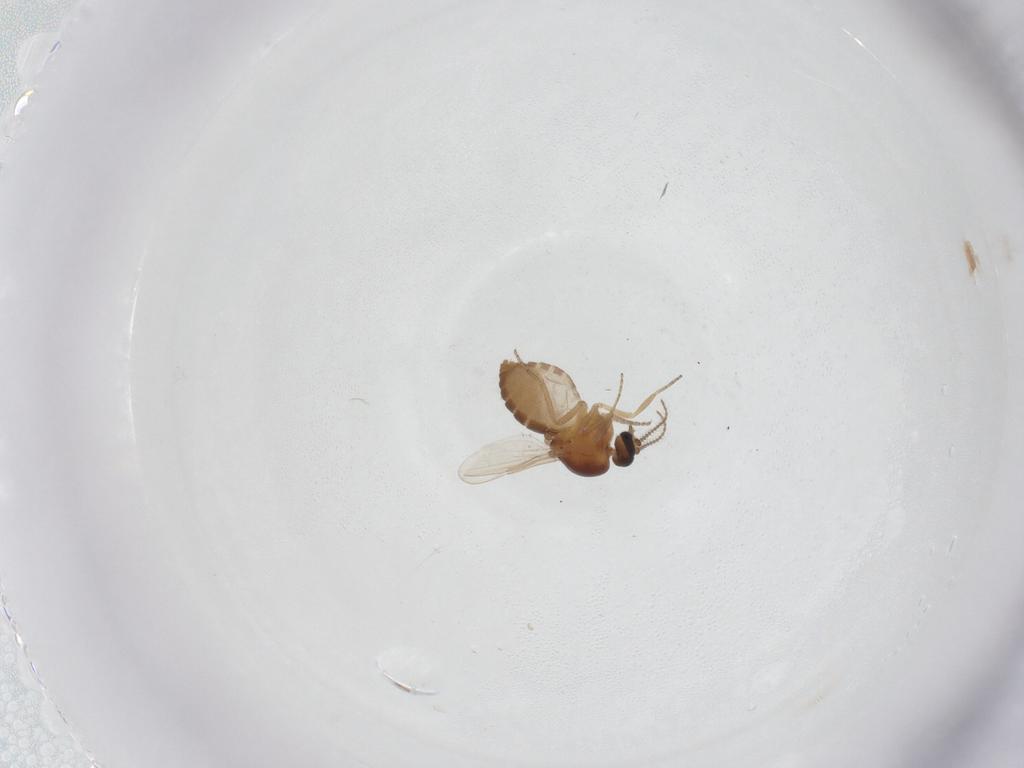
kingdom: Animalia
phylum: Arthropoda
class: Insecta
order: Diptera
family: Ceratopogonidae
